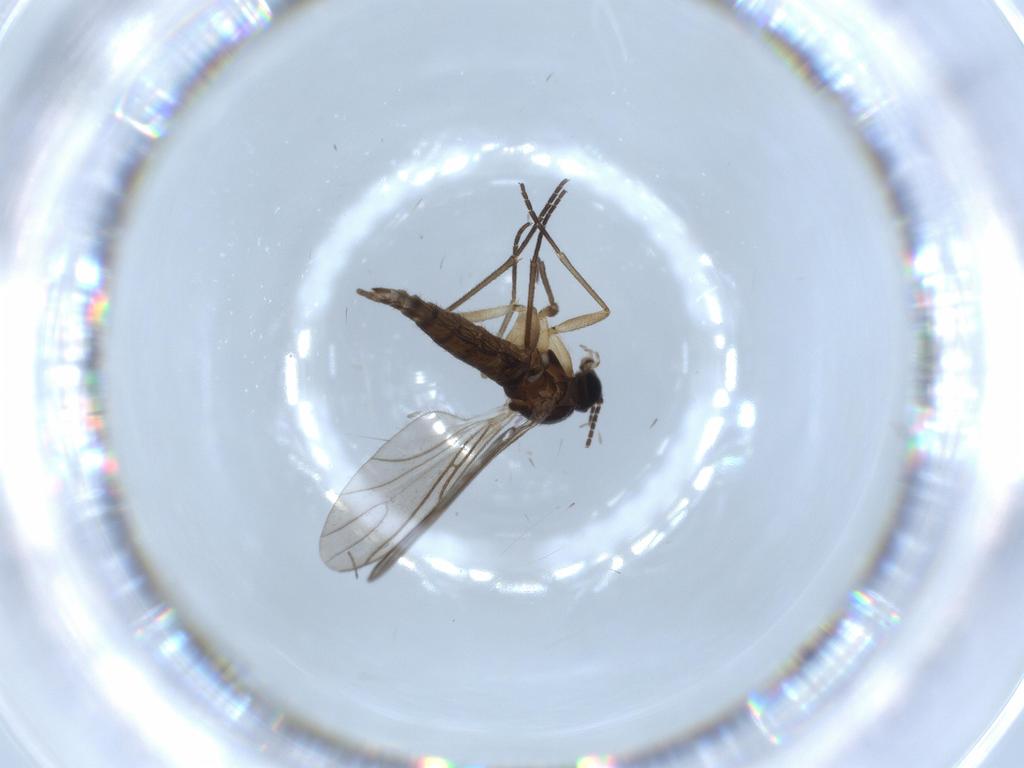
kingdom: Animalia
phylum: Arthropoda
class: Insecta
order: Diptera
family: Sciaridae
